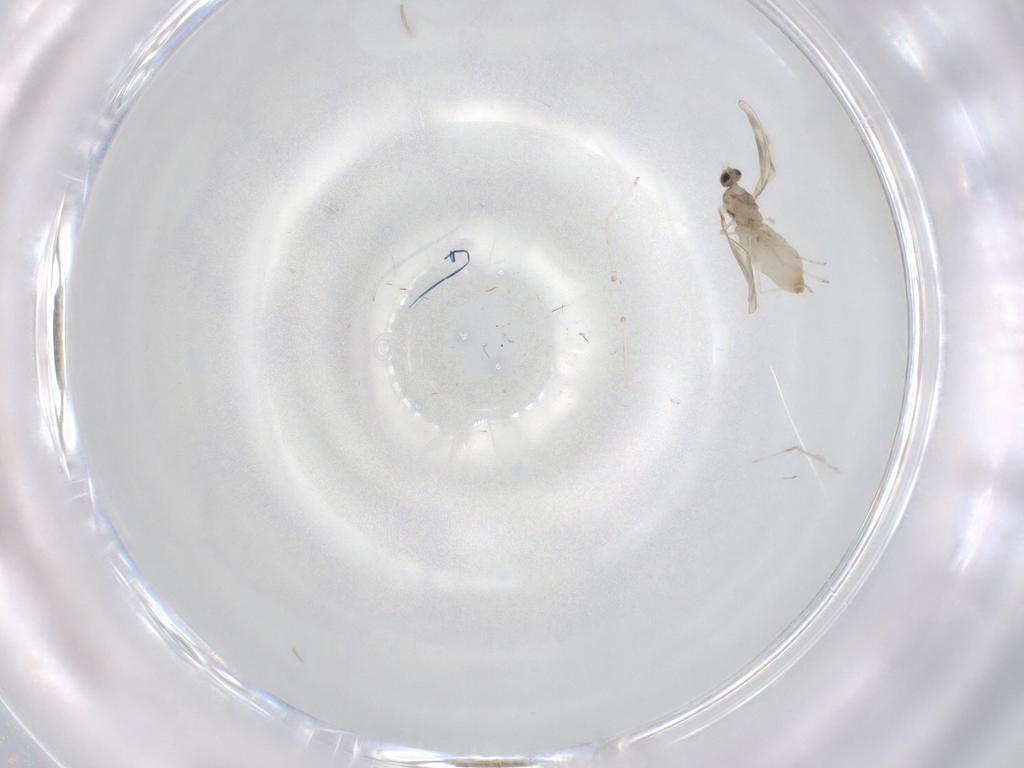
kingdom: Animalia
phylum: Arthropoda
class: Insecta
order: Diptera
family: Cecidomyiidae
